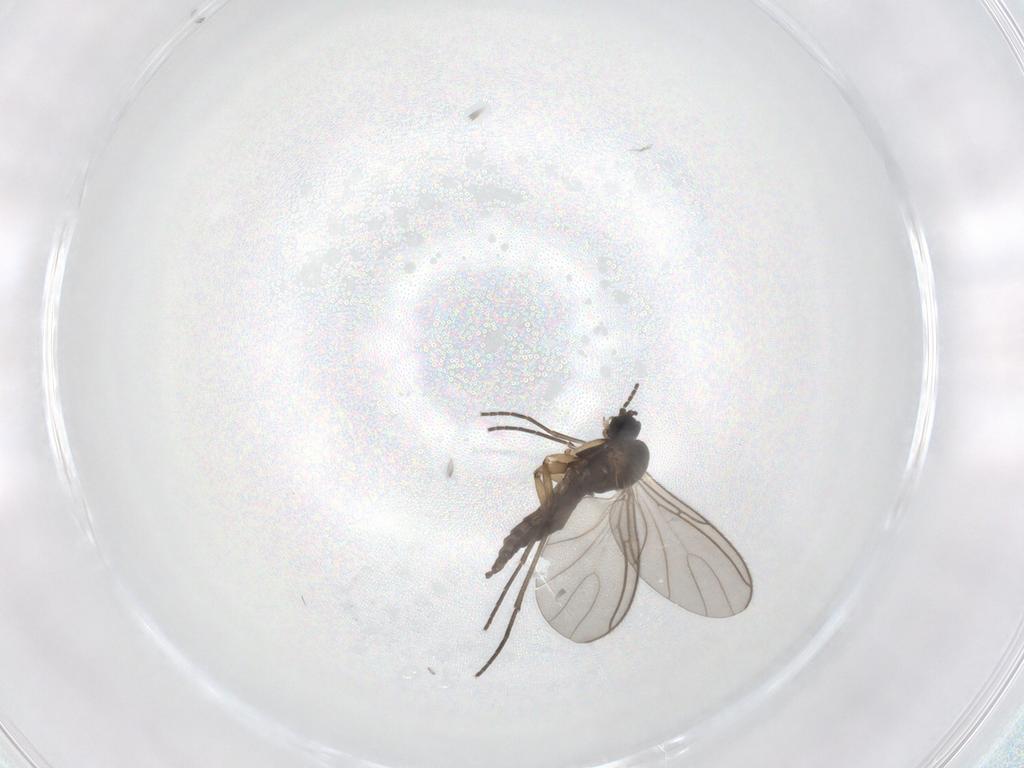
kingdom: Animalia
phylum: Arthropoda
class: Insecta
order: Diptera
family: Sciaridae
